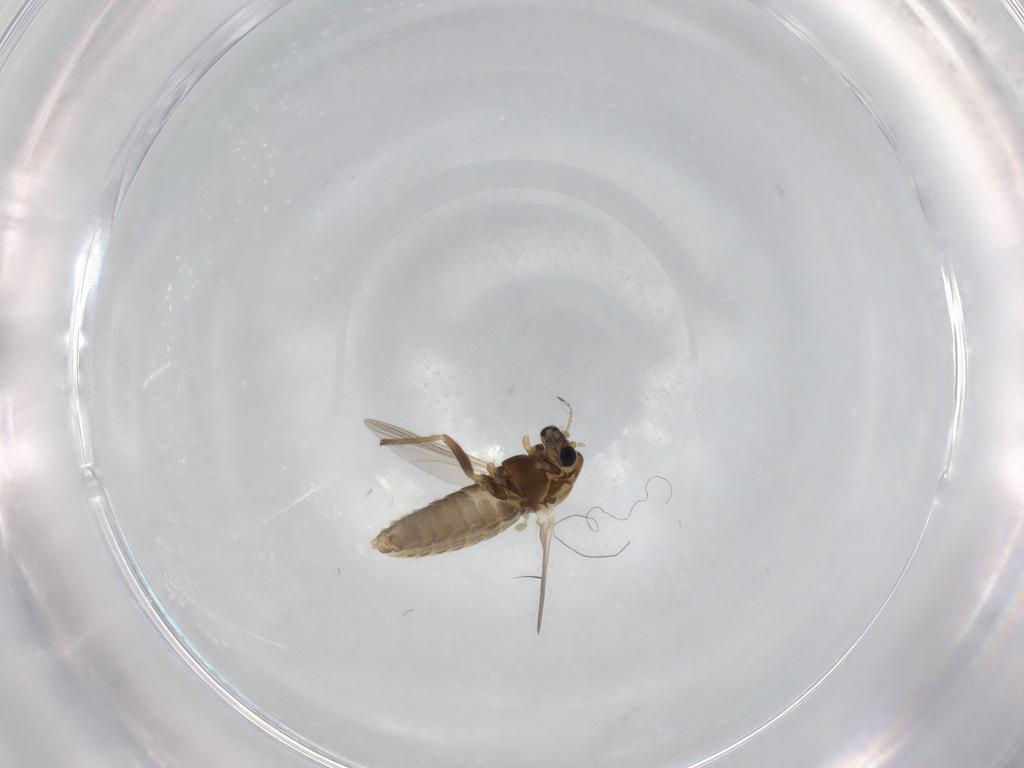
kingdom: Animalia
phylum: Arthropoda
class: Insecta
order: Diptera
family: Chironomidae
